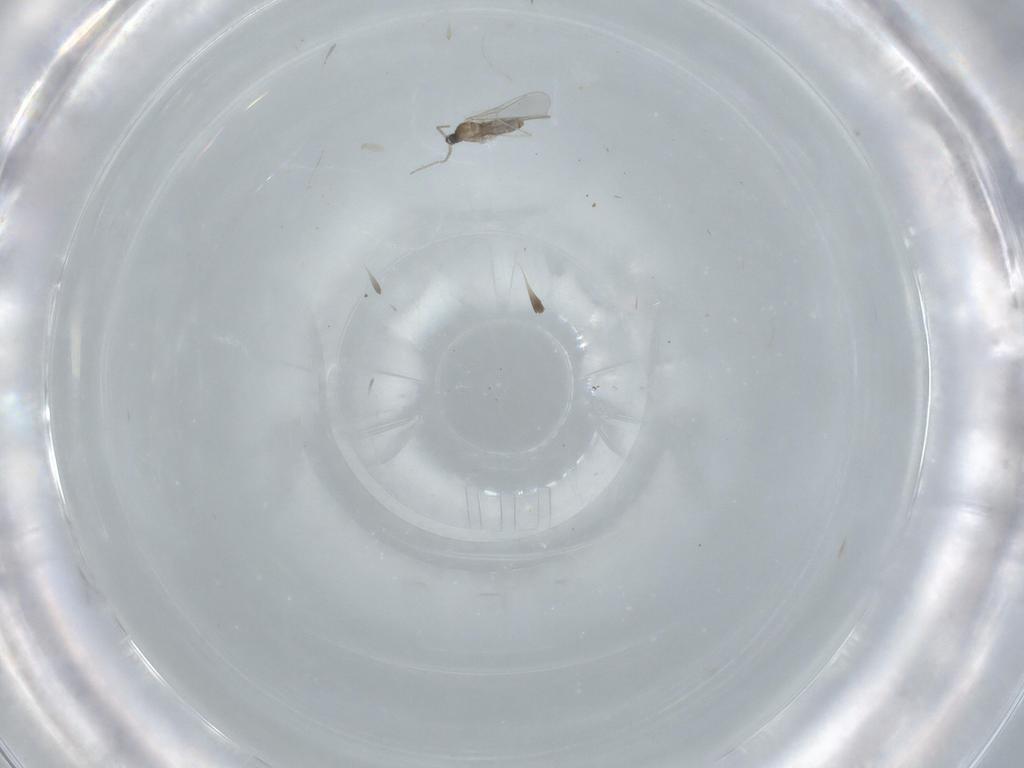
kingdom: Animalia
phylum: Arthropoda
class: Insecta
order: Diptera
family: Cecidomyiidae
